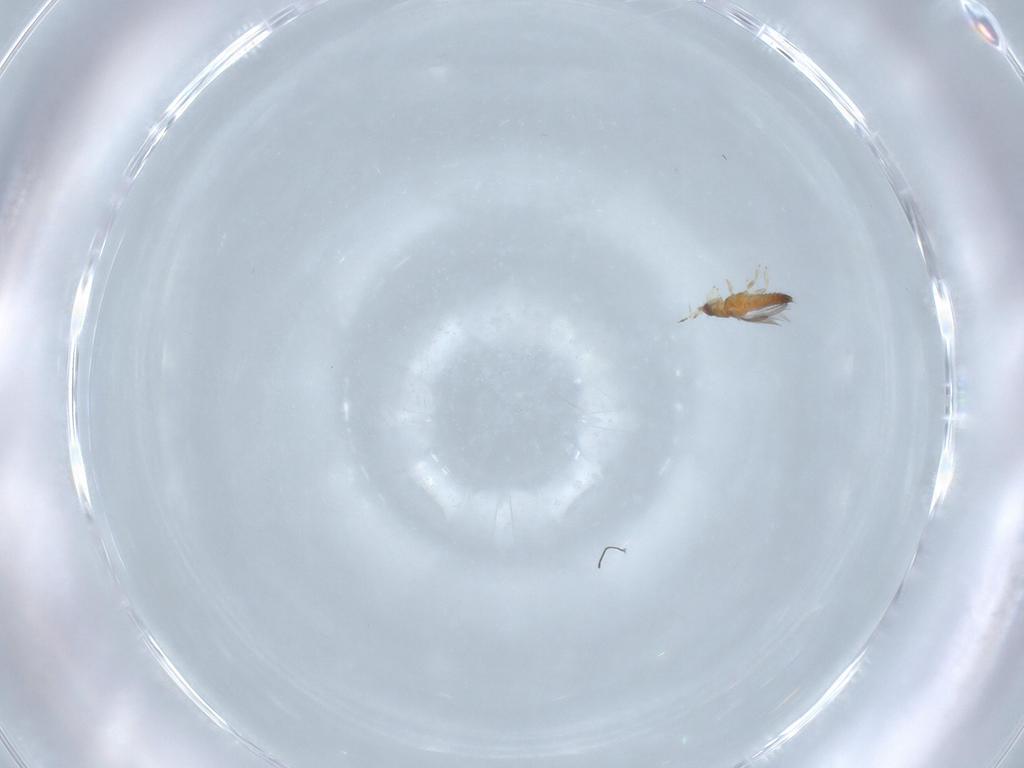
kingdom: Animalia
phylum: Arthropoda
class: Insecta
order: Thysanoptera
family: Thripidae
